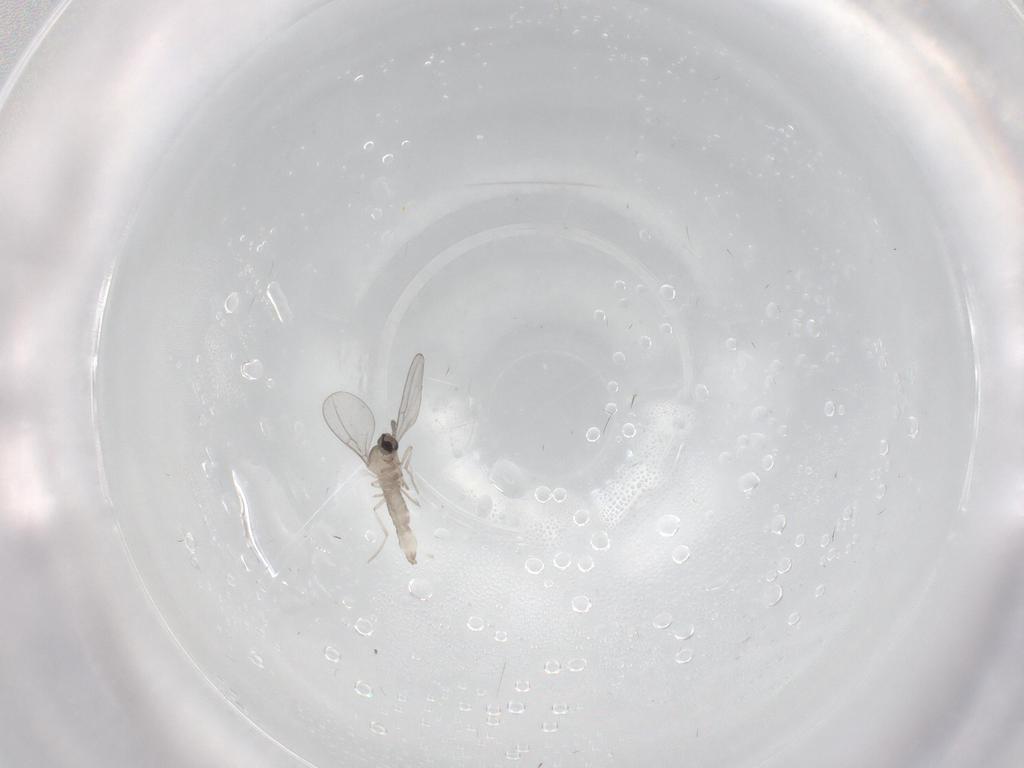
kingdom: Animalia
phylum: Arthropoda
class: Insecta
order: Diptera
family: Cecidomyiidae
